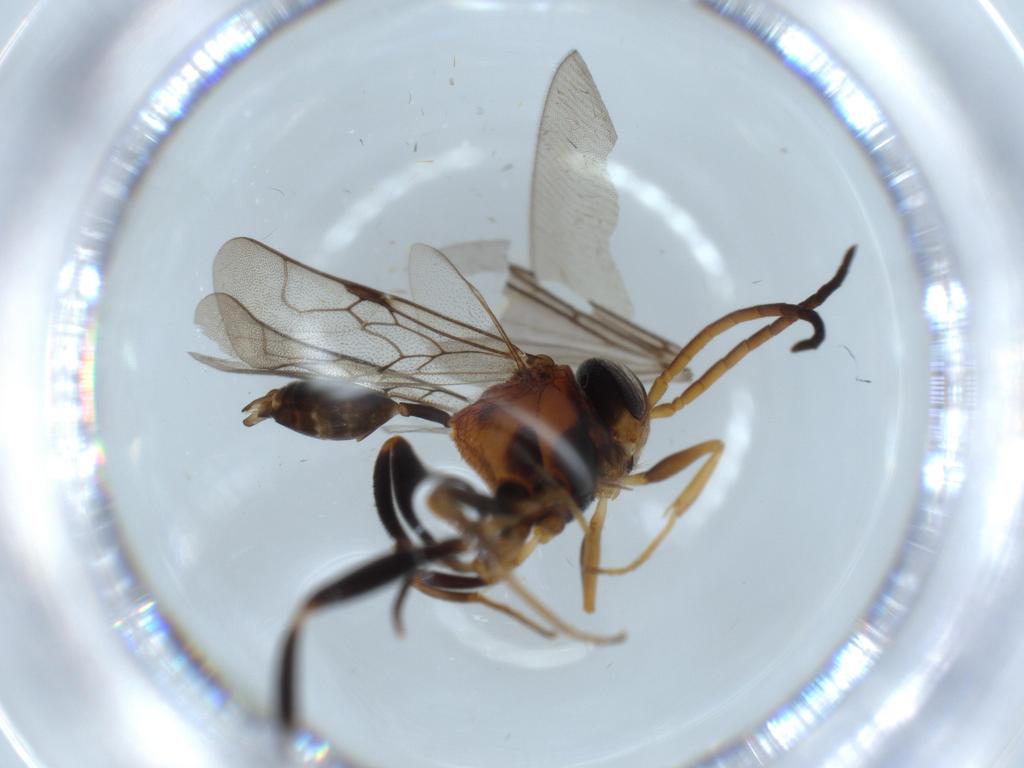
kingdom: Animalia
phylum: Arthropoda
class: Insecta
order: Hymenoptera
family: Evaniidae
